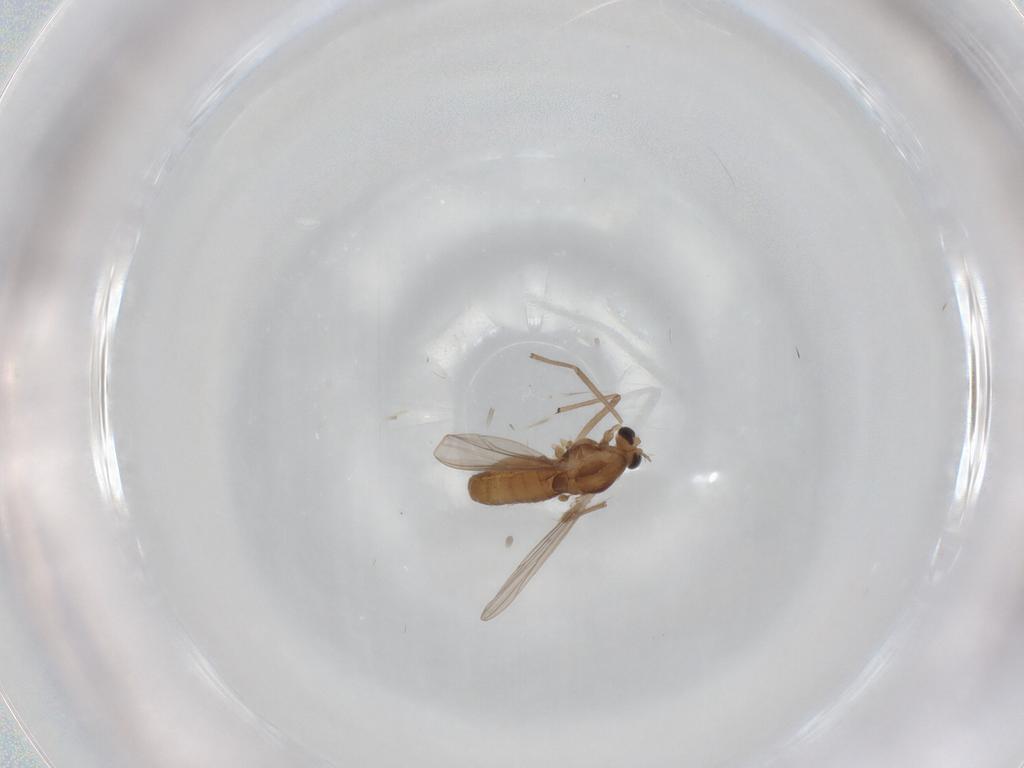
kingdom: Animalia
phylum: Arthropoda
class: Insecta
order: Diptera
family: Chironomidae
